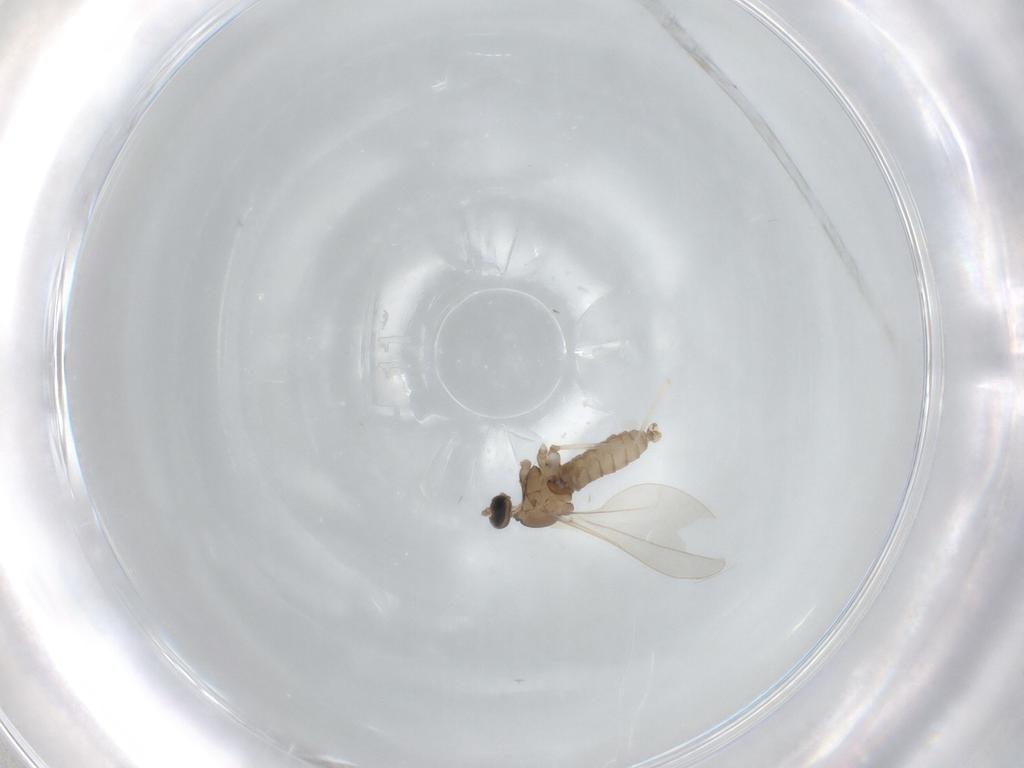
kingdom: Animalia
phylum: Arthropoda
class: Insecta
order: Diptera
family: Cecidomyiidae
